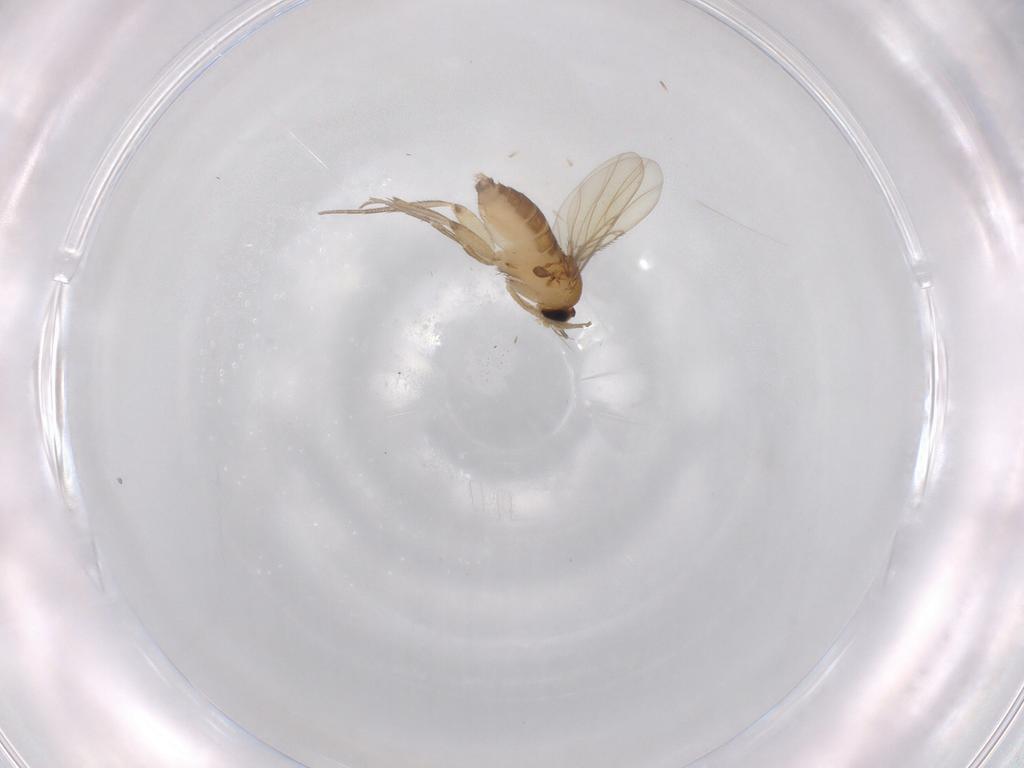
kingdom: Animalia
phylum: Arthropoda
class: Insecta
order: Diptera
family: Phoridae
